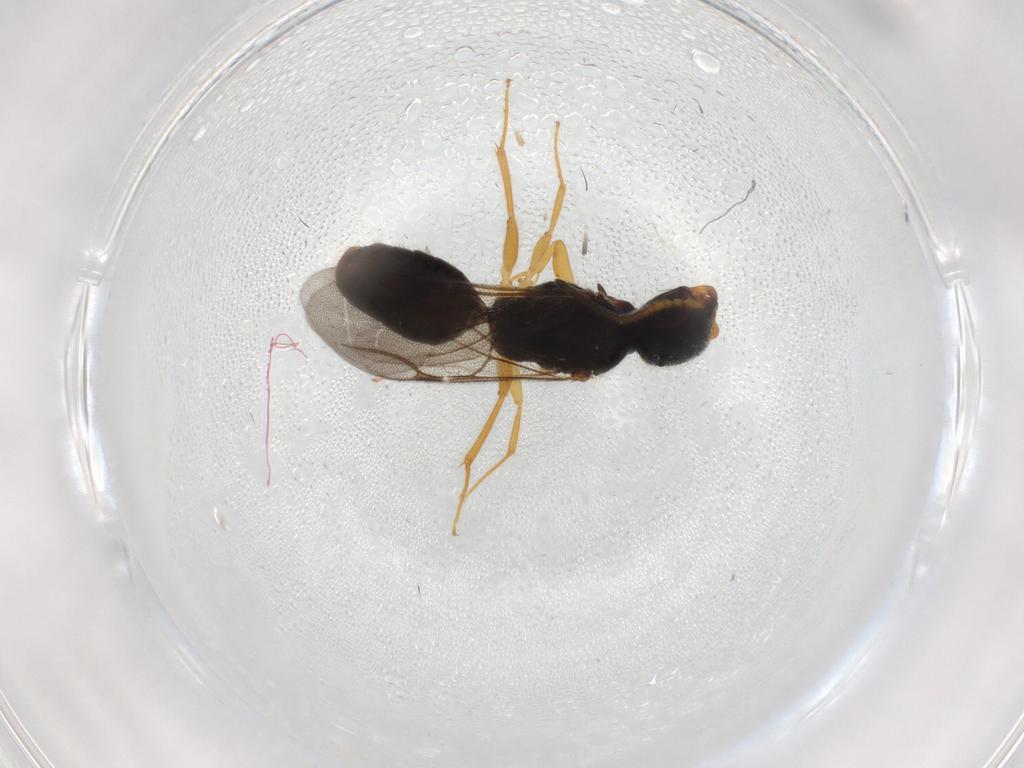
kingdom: Animalia
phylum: Arthropoda
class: Insecta
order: Hymenoptera
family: Bethylidae
